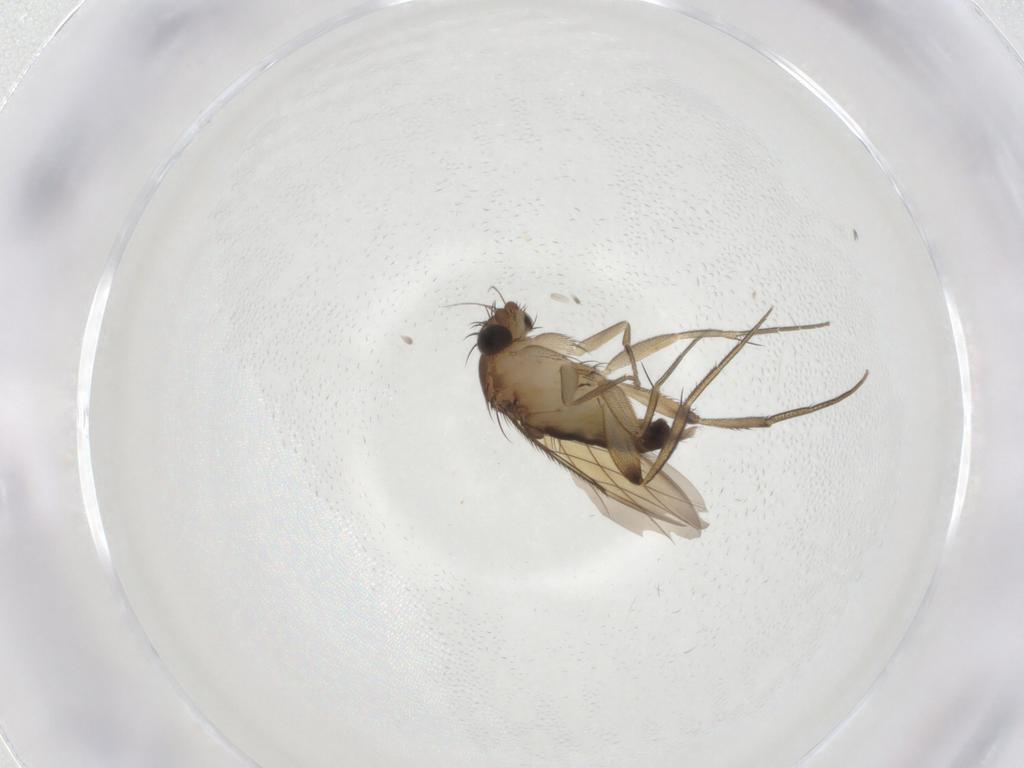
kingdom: Animalia
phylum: Arthropoda
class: Insecta
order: Diptera
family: Phoridae
